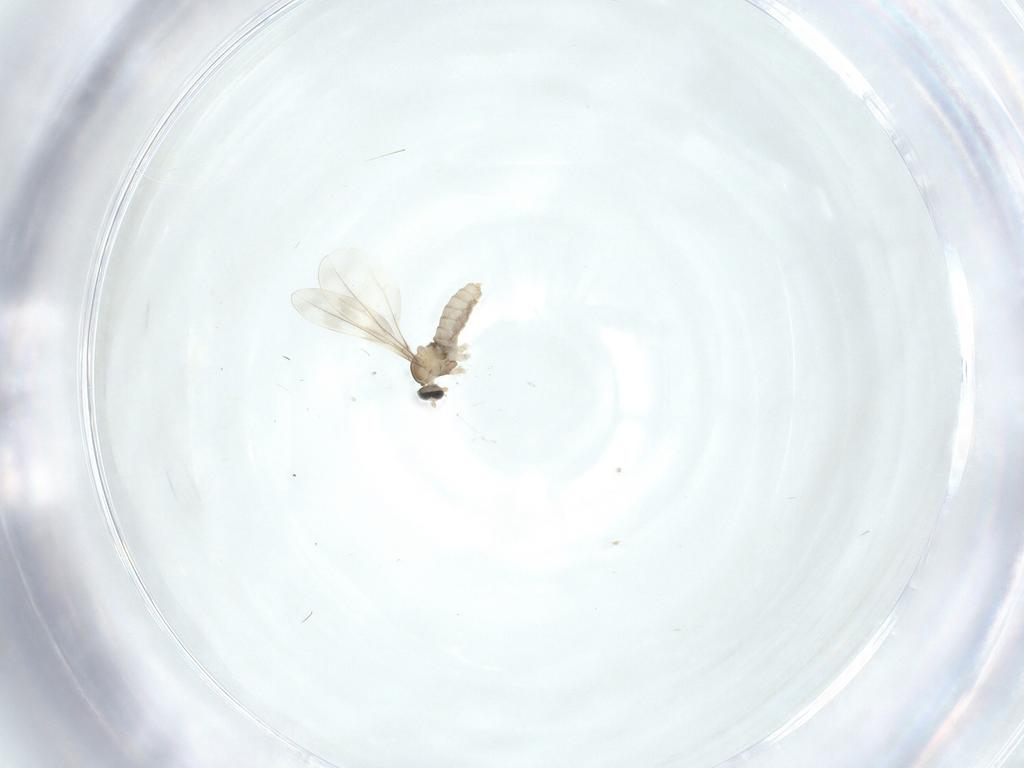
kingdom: Animalia
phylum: Arthropoda
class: Insecta
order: Diptera
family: Cecidomyiidae
